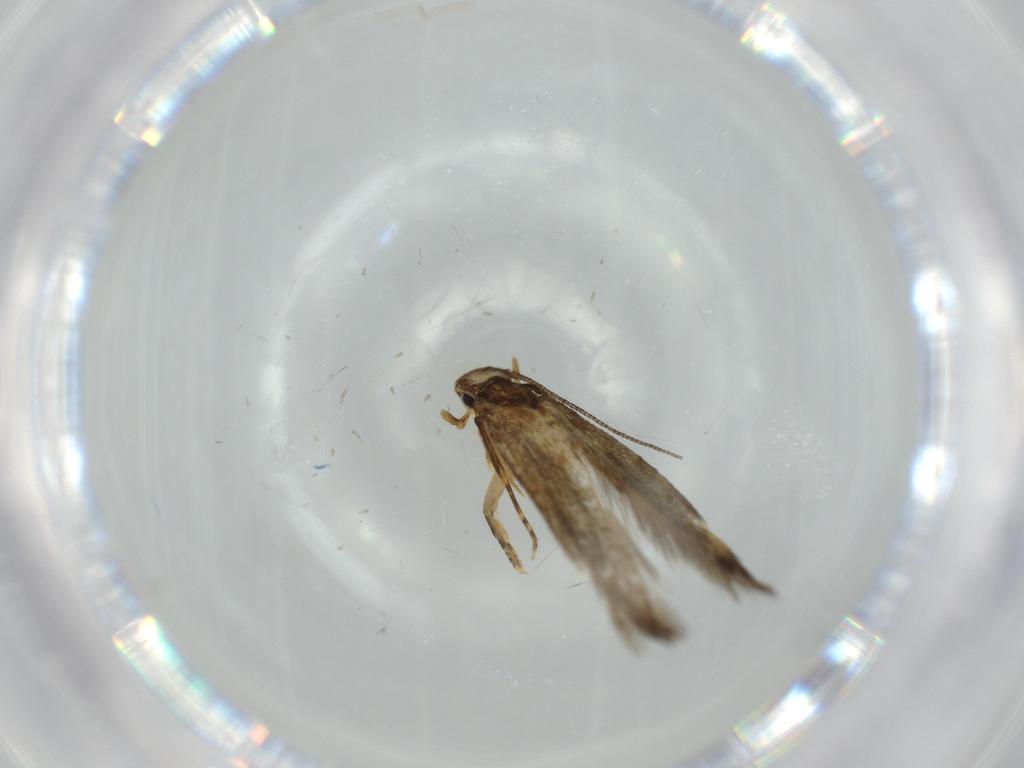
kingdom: Animalia
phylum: Arthropoda
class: Insecta
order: Lepidoptera
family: Tineidae
